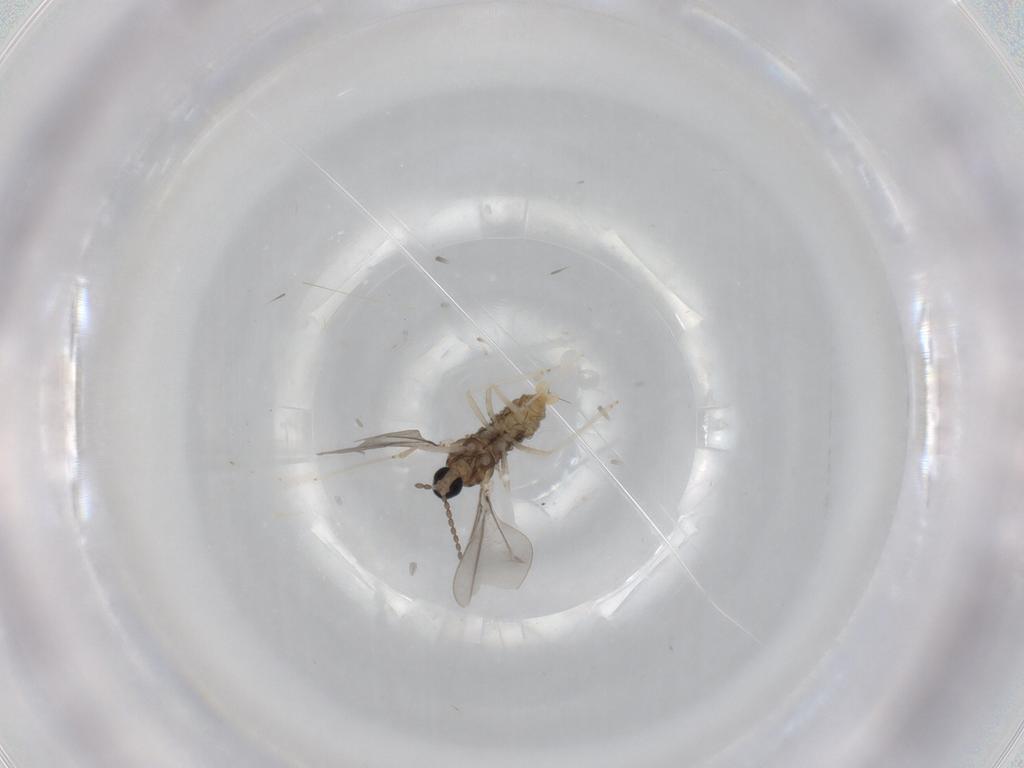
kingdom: Animalia
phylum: Arthropoda
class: Insecta
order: Diptera
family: Cecidomyiidae
